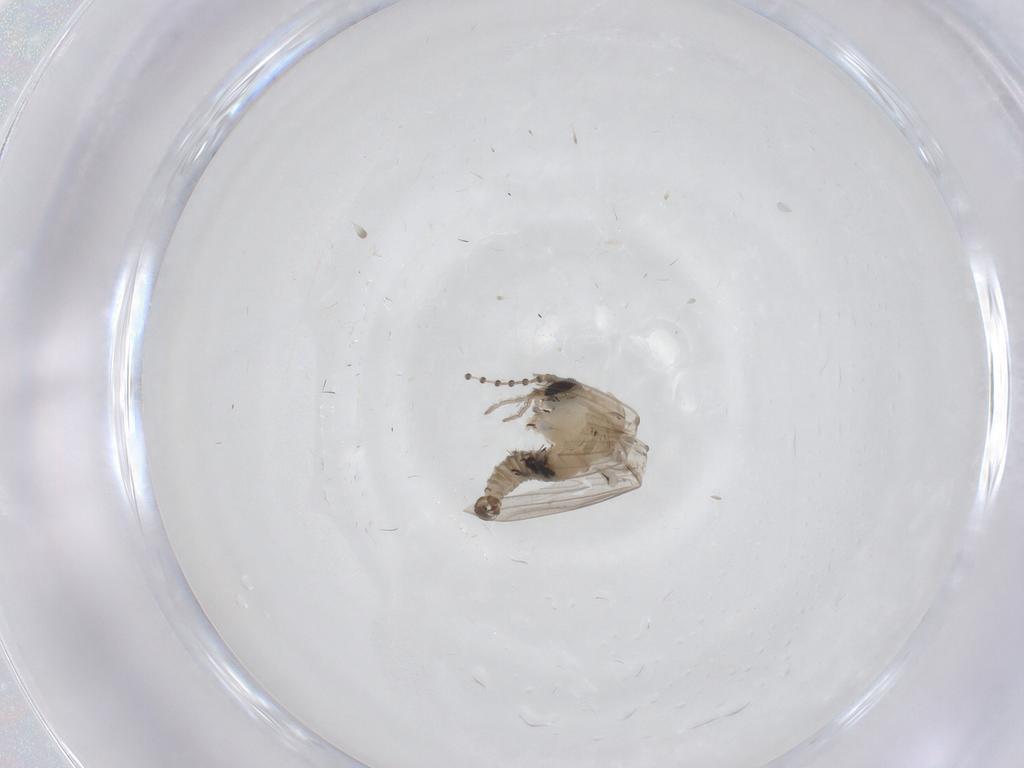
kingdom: Animalia
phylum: Arthropoda
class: Insecta
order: Diptera
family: Psychodidae
